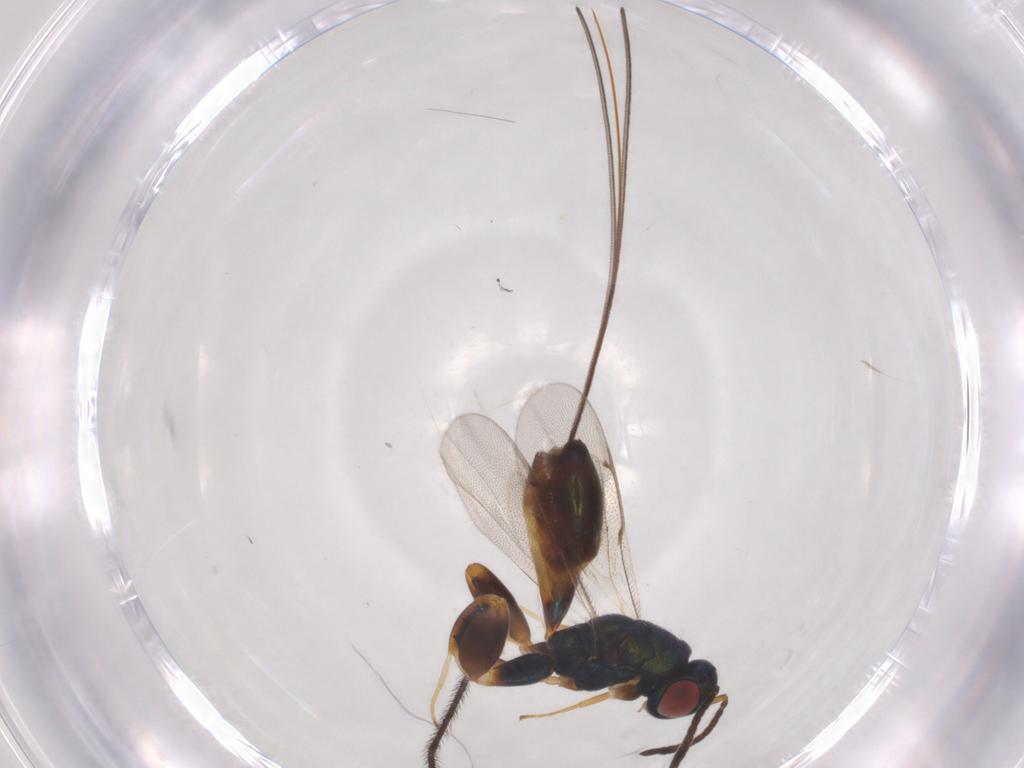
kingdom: Animalia
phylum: Arthropoda
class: Insecta
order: Hymenoptera
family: Torymidae
